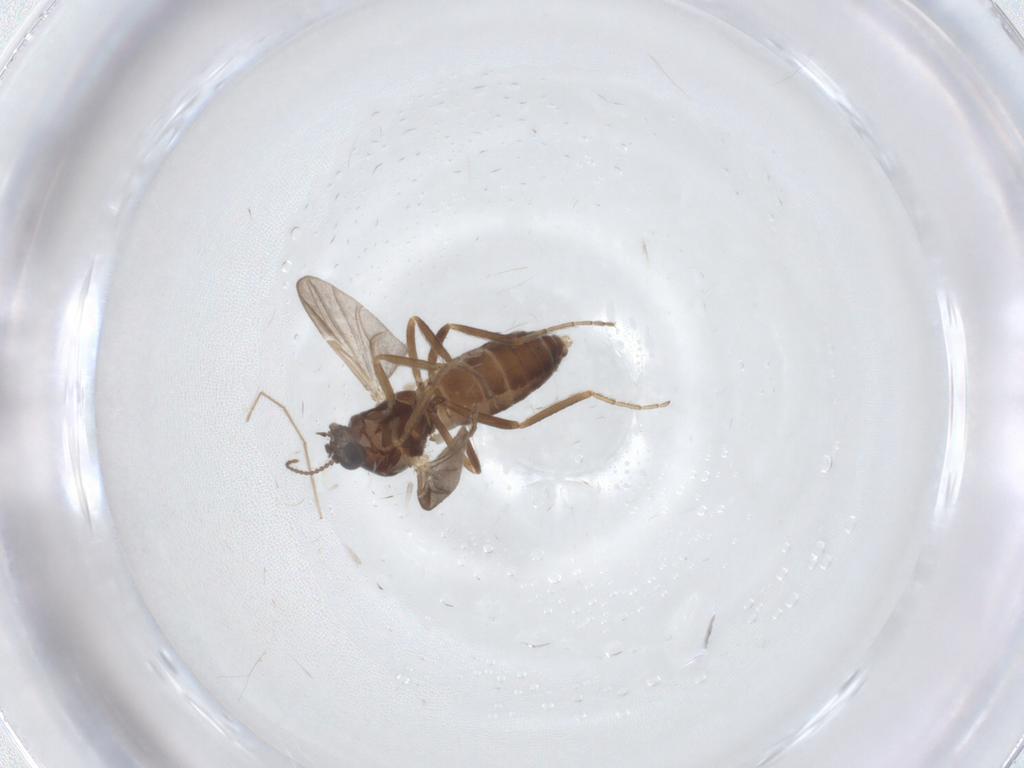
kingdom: Animalia
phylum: Arthropoda
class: Insecta
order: Diptera
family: Ceratopogonidae
